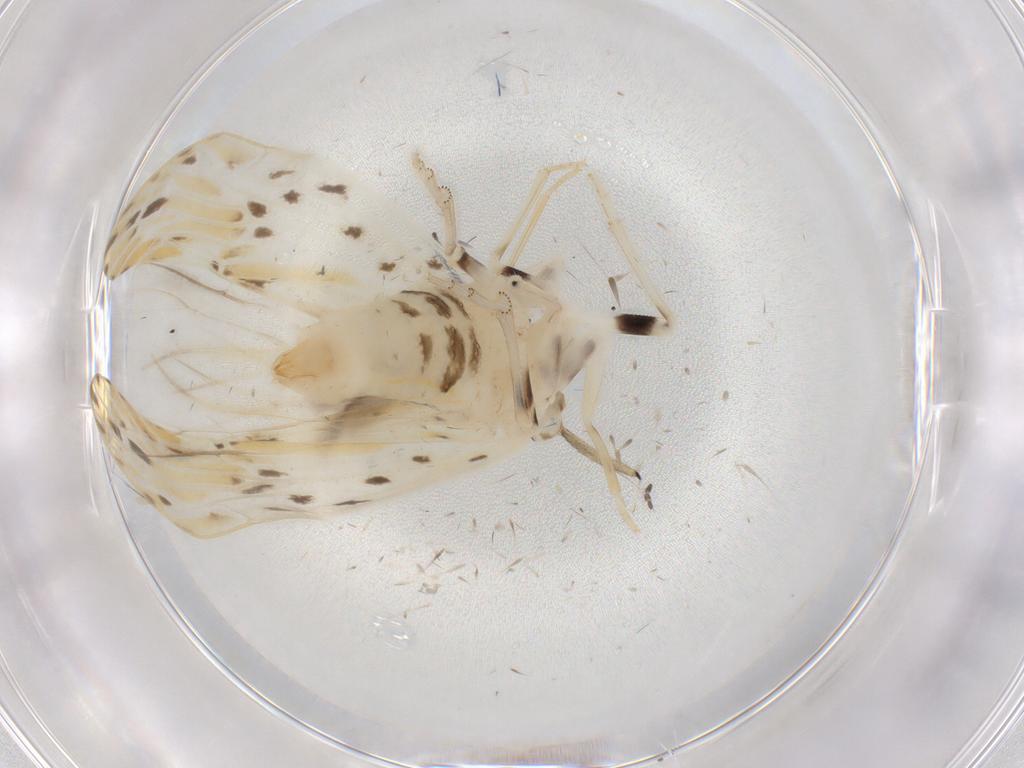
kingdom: Animalia
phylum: Arthropoda
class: Insecta
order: Hemiptera
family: Derbidae
